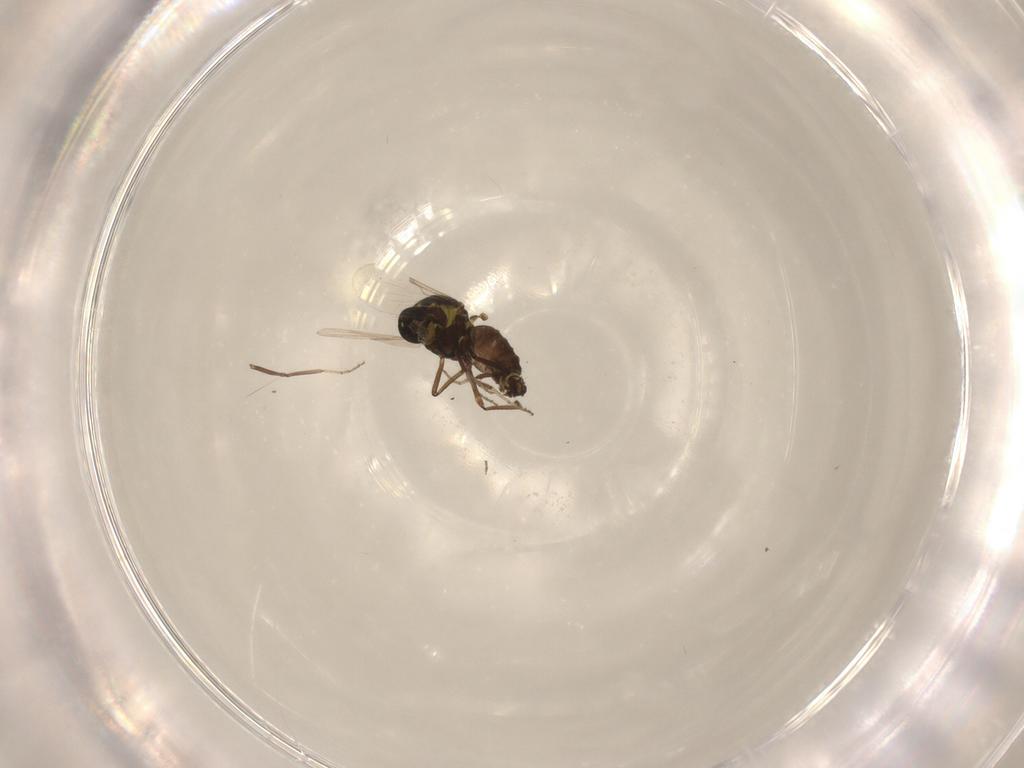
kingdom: Animalia
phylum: Arthropoda
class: Insecta
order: Diptera
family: Ceratopogonidae
